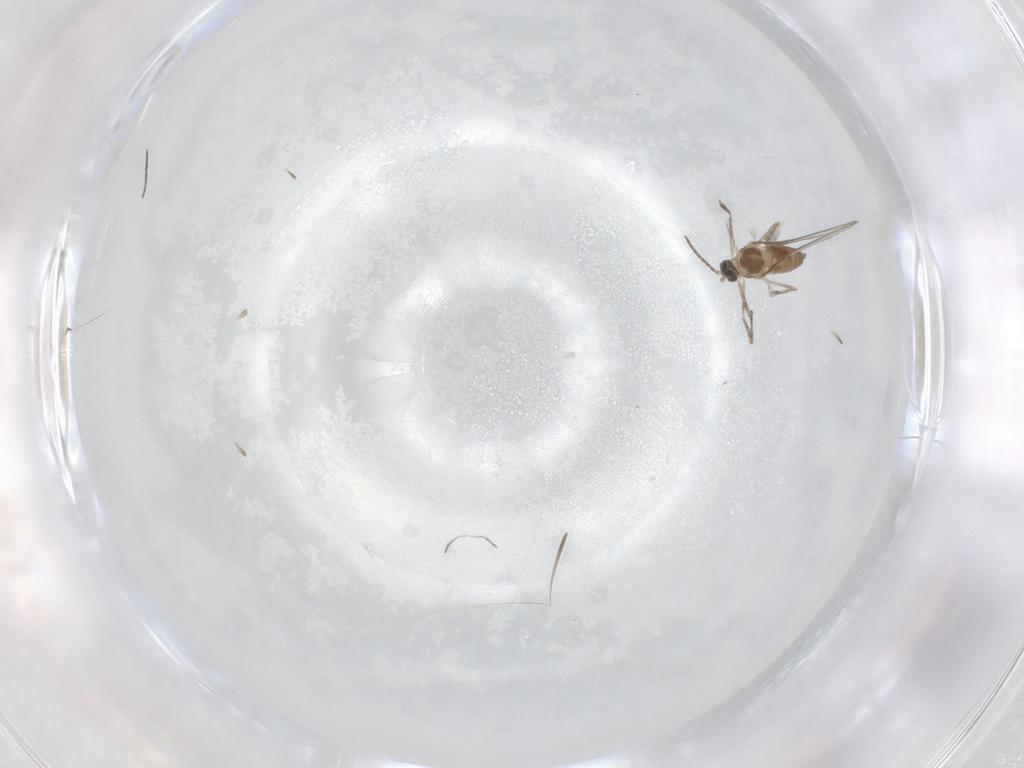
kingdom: Animalia
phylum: Arthropoda
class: Insecta
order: Diptera
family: Cecidomyiidae
